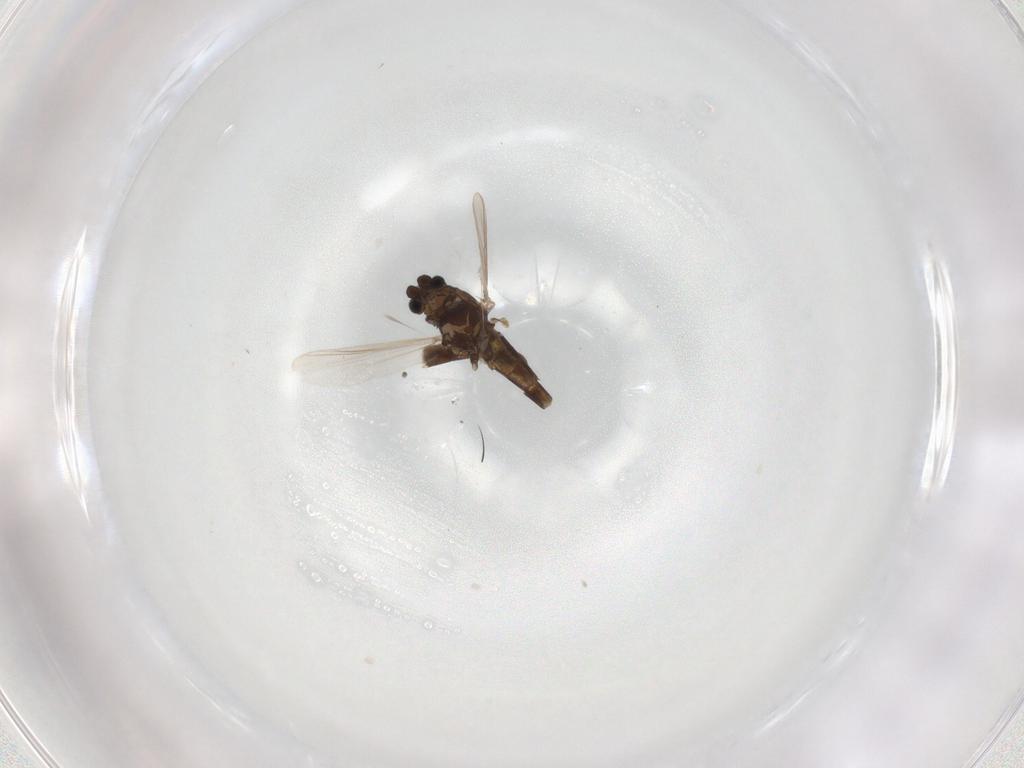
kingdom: Animalia
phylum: Arthropoda
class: Insecta
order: Diptera
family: Chironomidae
